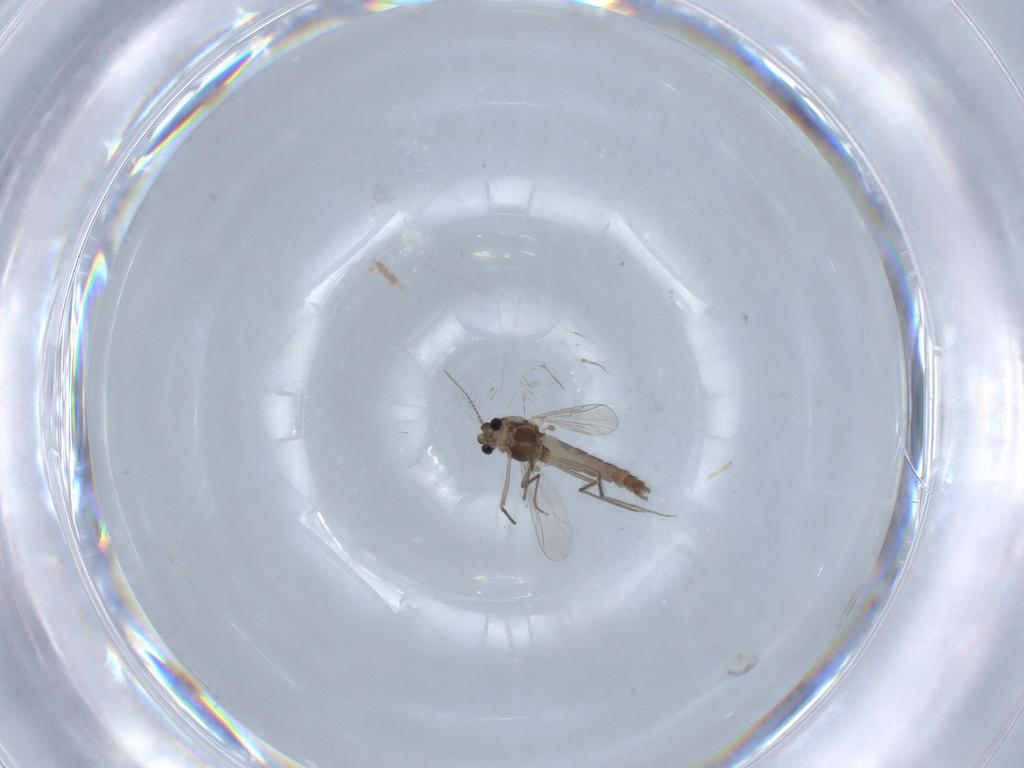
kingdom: Animalia
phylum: Arthropoda
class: Insecta
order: Diptera
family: Chironomidae
